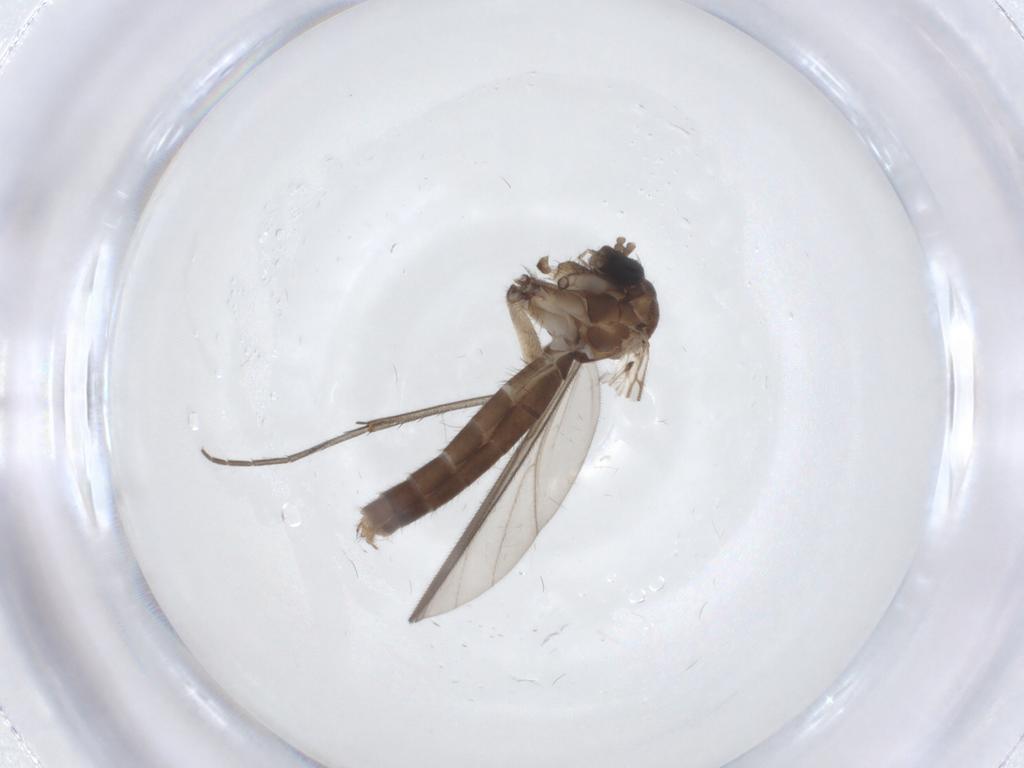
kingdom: Animalia
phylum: Arthropoda
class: Insecta
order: Diptera
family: Mycetophilidae
